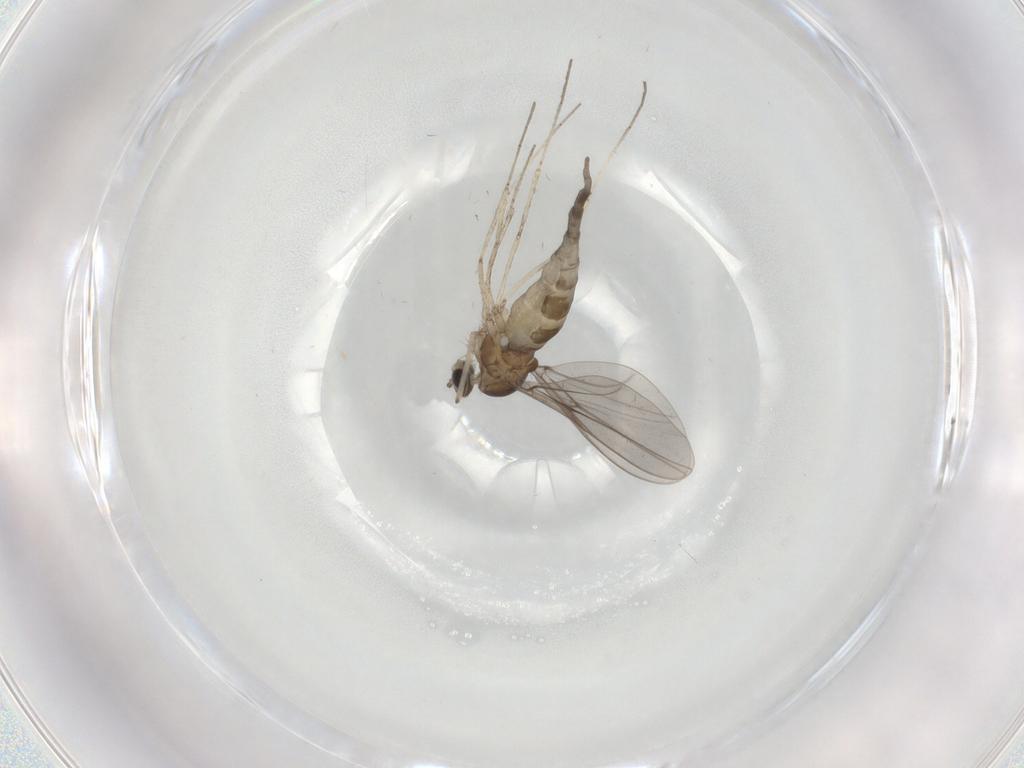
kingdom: Animalia
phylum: Arthropoda
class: Insecta
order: Diptera
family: Cecidomyiidae
